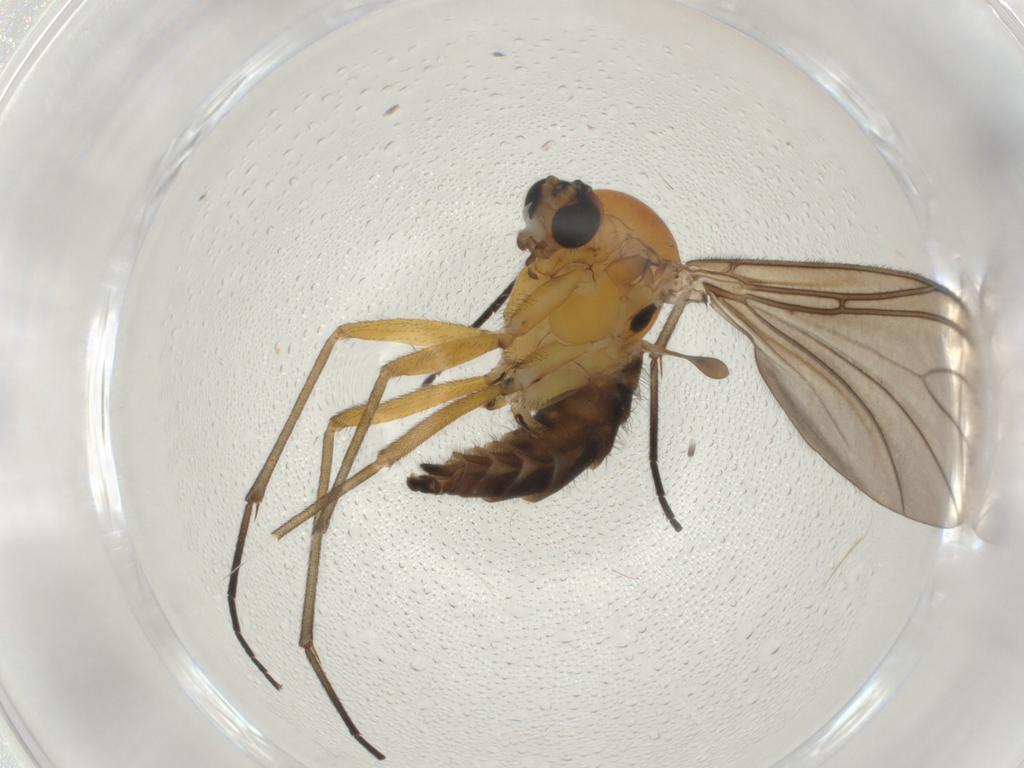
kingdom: Animalia
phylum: Arthropoda
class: Insecta
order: Diptera
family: Sciaridae
